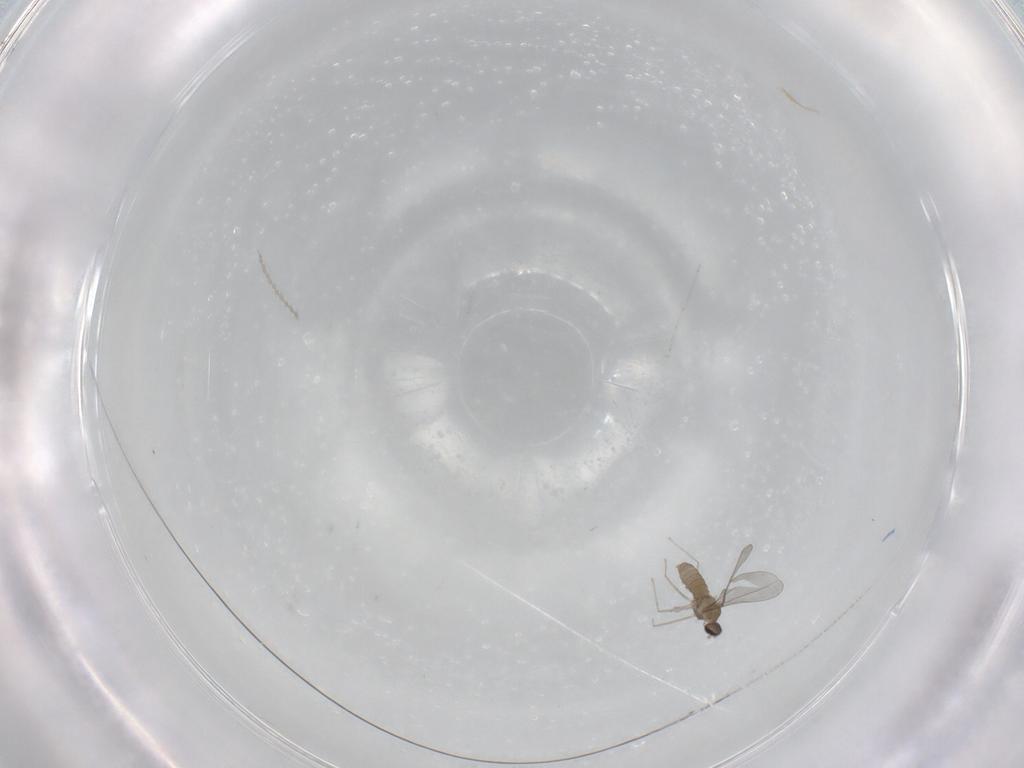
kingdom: Animalia
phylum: Arthropoda
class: Insecta
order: Diptera
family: Cecidomyiidae
